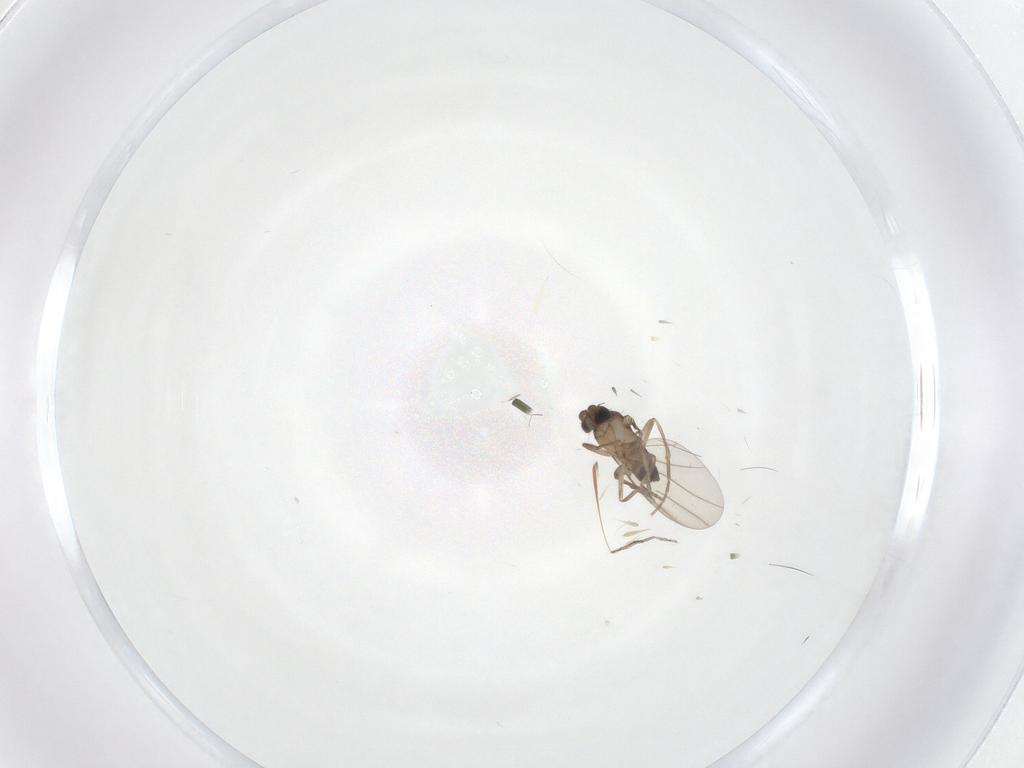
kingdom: Animalia
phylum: Arthropoda
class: Insecta
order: Diptera
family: Phoridae
